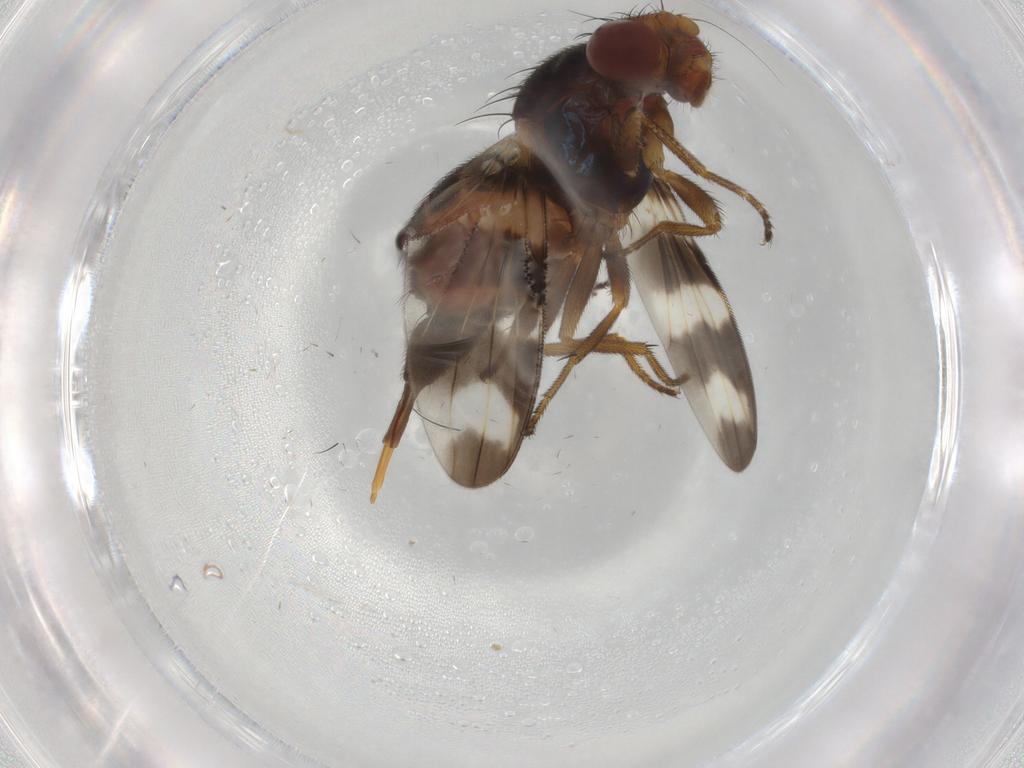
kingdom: Animalia
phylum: Arthropoda
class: Insecta
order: Diptera
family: Ulidiidae
